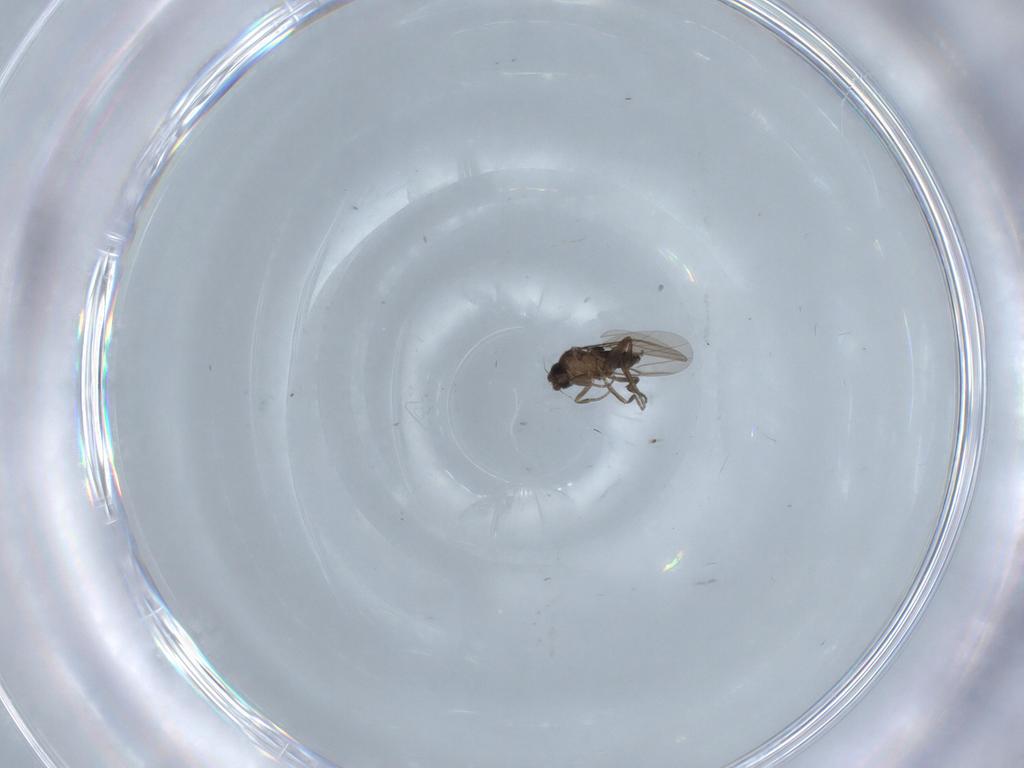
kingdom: Animalia
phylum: Arthropoda
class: Insecta
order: Diptera
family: Phoridae
